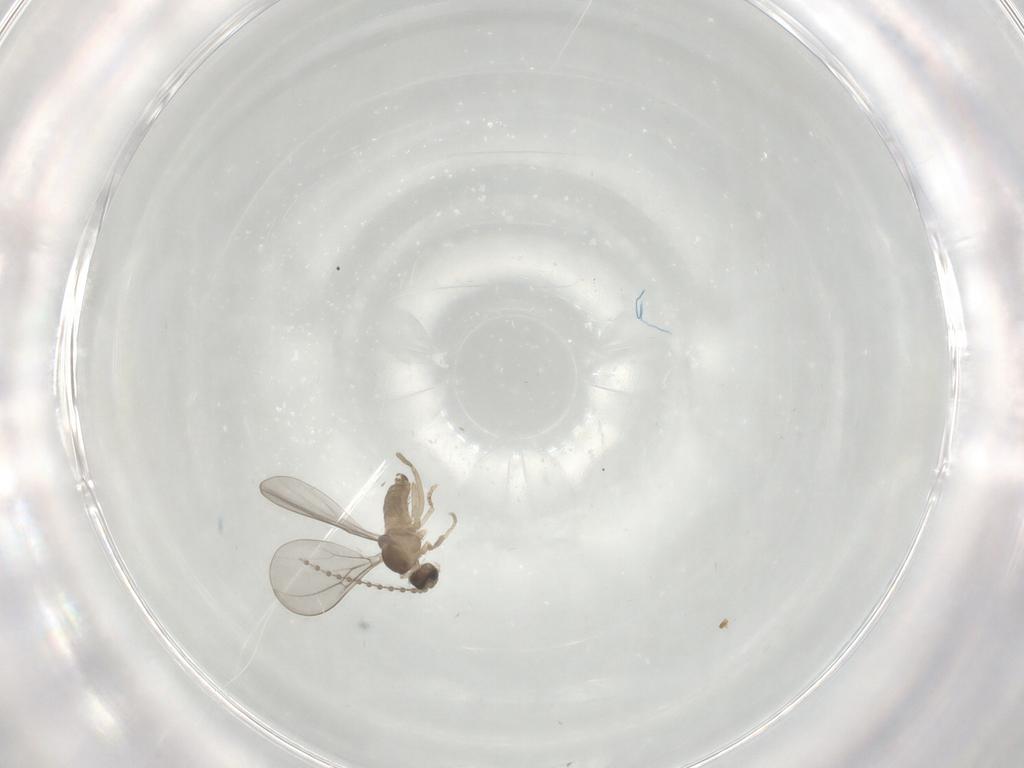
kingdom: Animalia
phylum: Arthropoda
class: Insecta
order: Diptera
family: Cecidomyiidae
